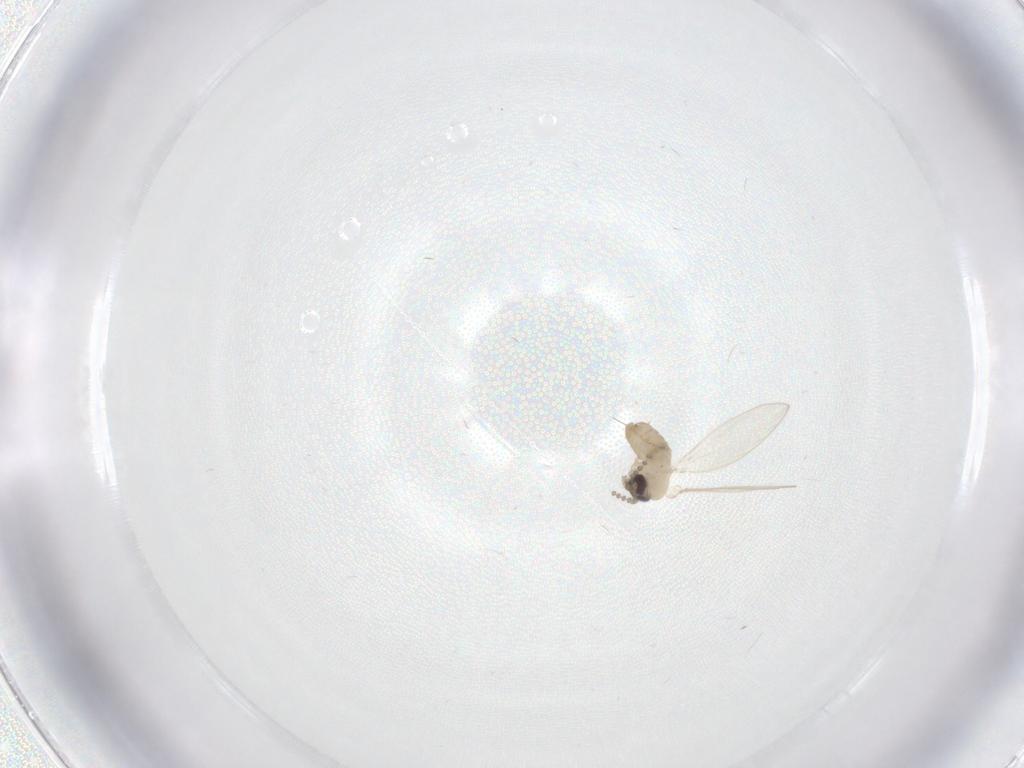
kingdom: Animalia
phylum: Arthropoda
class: Insecta
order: Diptera
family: Psychodidae
